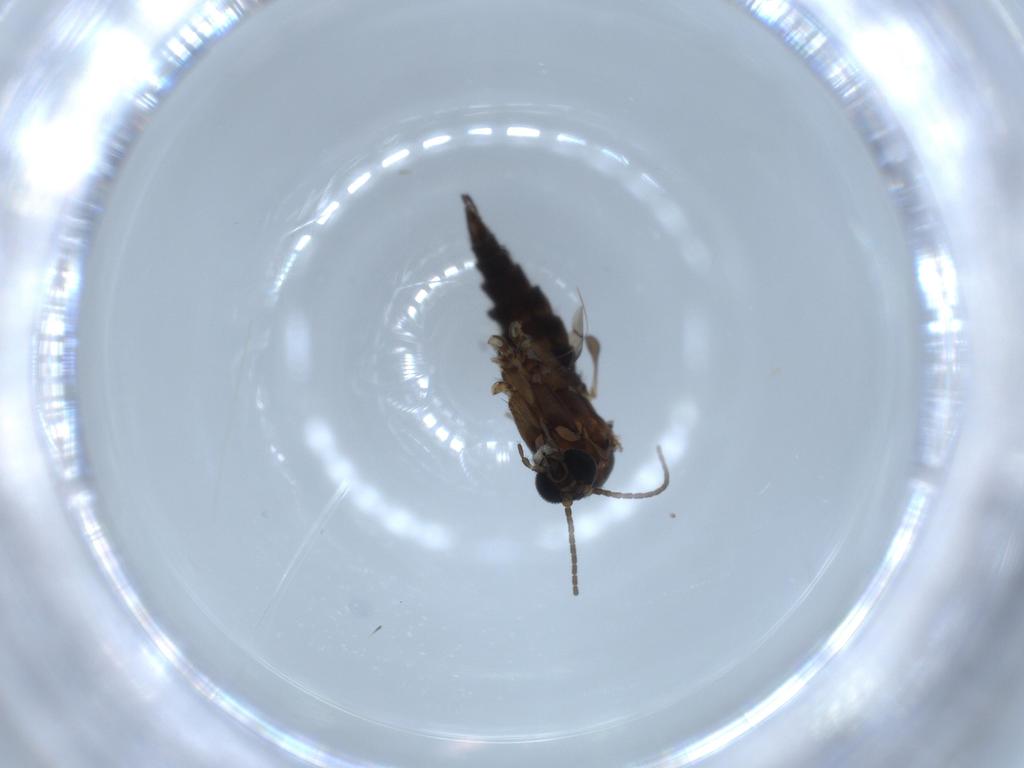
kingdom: Animalia
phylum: Arthropoda
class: Insecta
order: Diptera
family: Sciaridae
